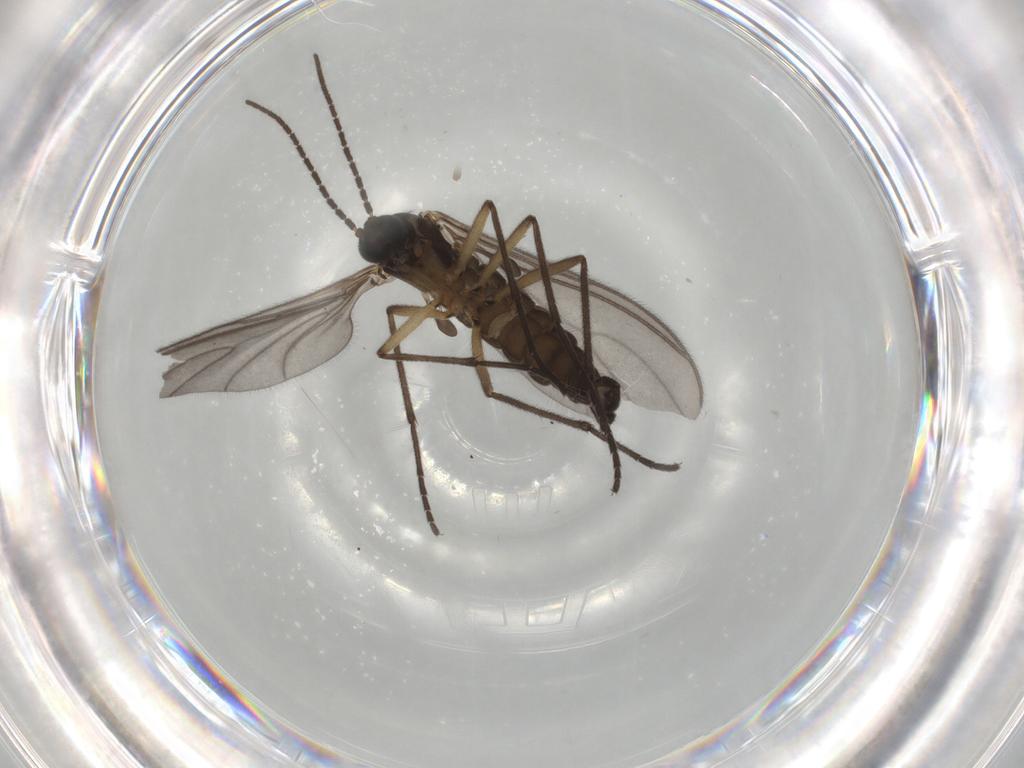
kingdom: Animalia
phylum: Arthropoda
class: Insecta
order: Diptera
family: Sciaridae
